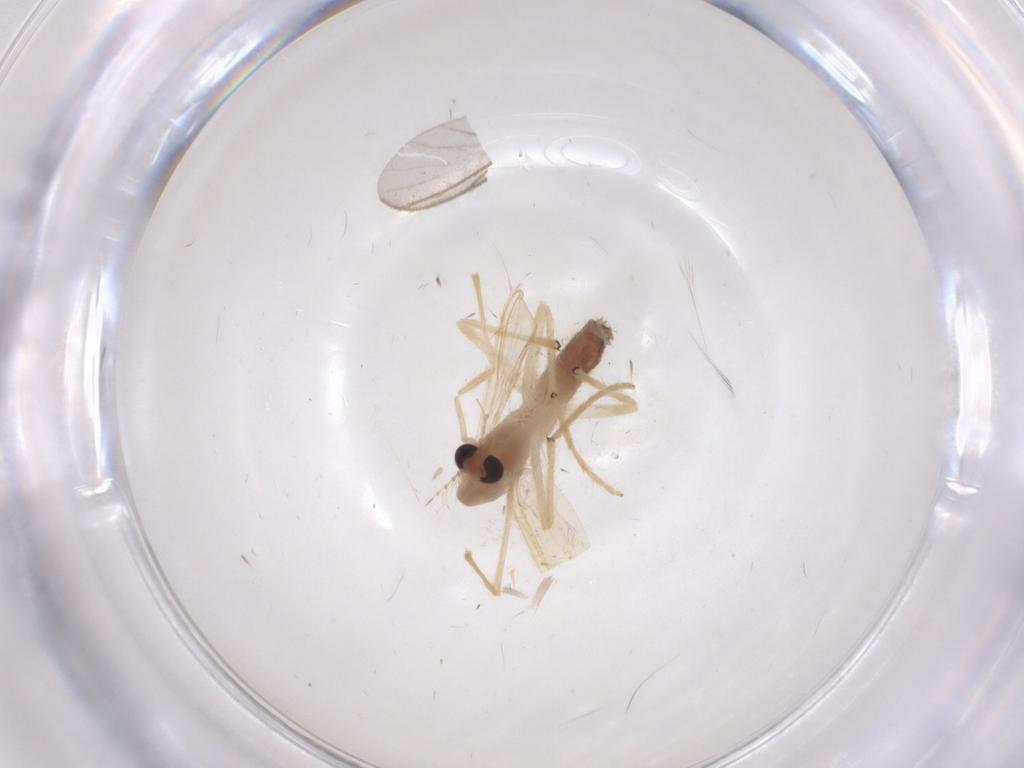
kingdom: Animalia
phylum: Arthropoda
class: Insecta
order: Diptera
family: Chironomidae
